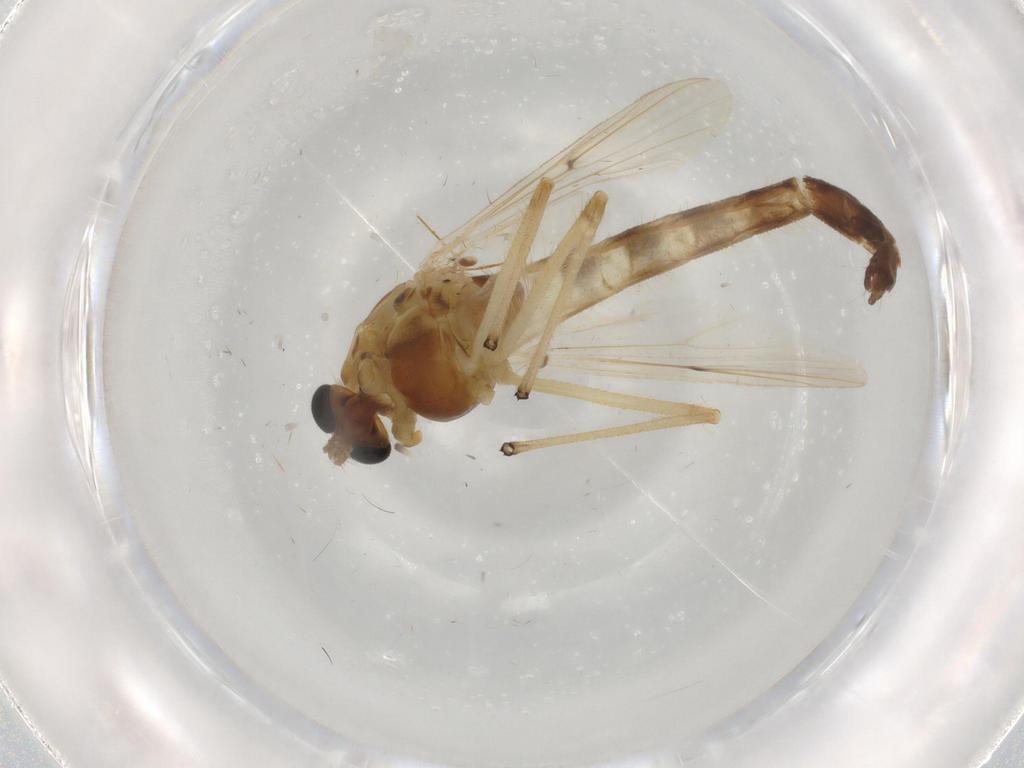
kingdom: Animalia
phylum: Arthropoda
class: Insecta
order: Diptera
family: Chironomidae
